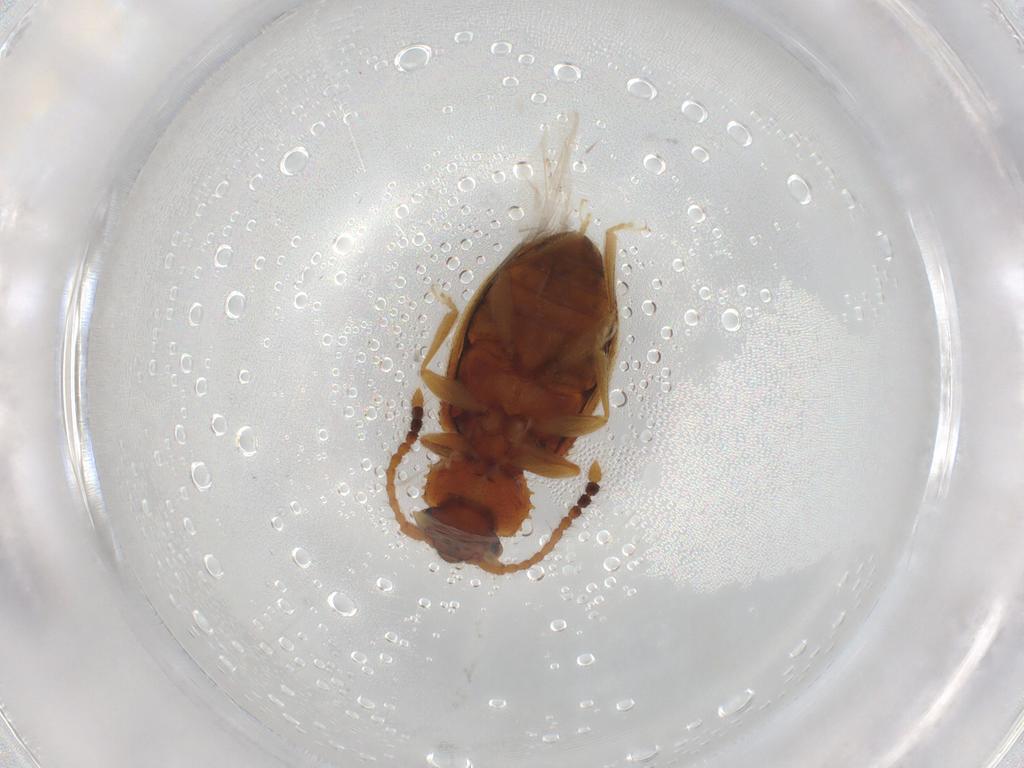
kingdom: Animalia
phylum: Arthropoda
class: Insecta
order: Coleoptera
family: Silvanidae
